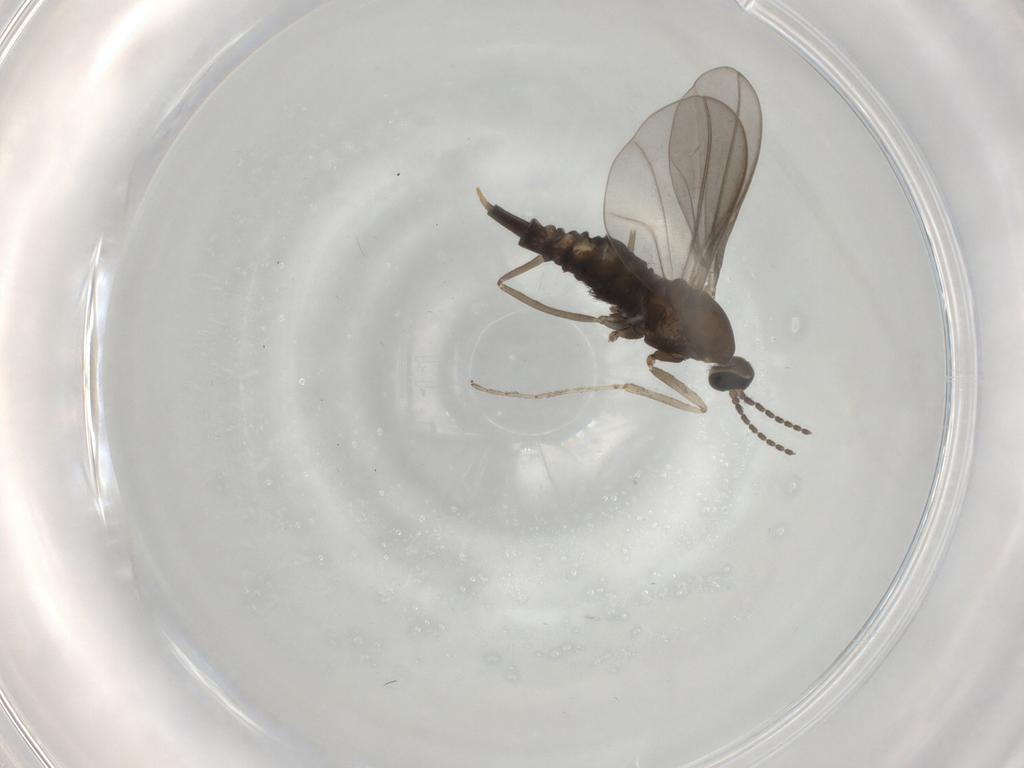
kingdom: Animalia
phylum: Arthropoda
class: Insecta
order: Diptera
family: Cecidomyiidae
